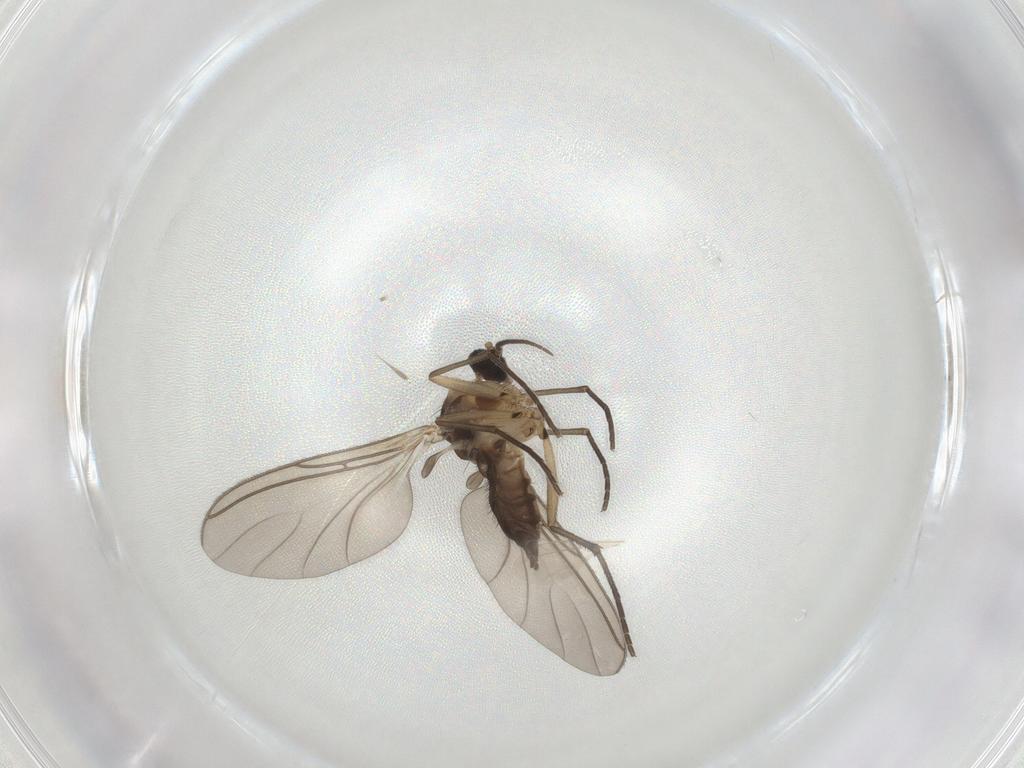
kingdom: Animalia
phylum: Arthropoda
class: Insecta
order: Diptera
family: Sciaridae
